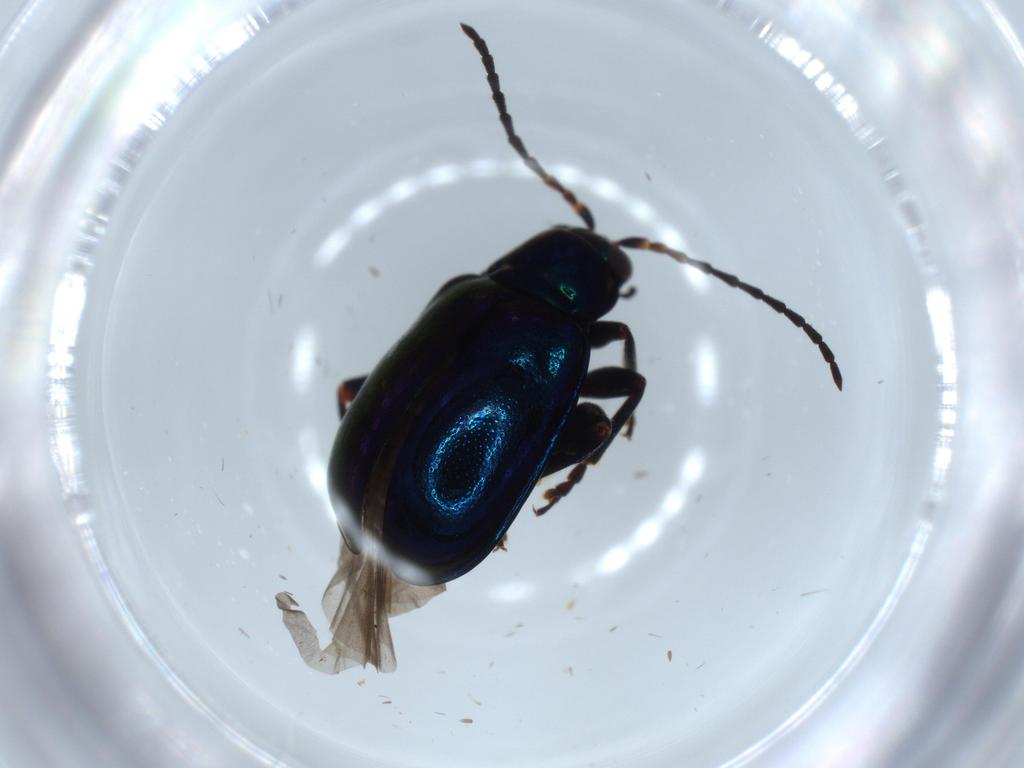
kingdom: Animalia
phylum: Arthropoda
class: Insecta
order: Coleoptera
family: Chrysomelidae
